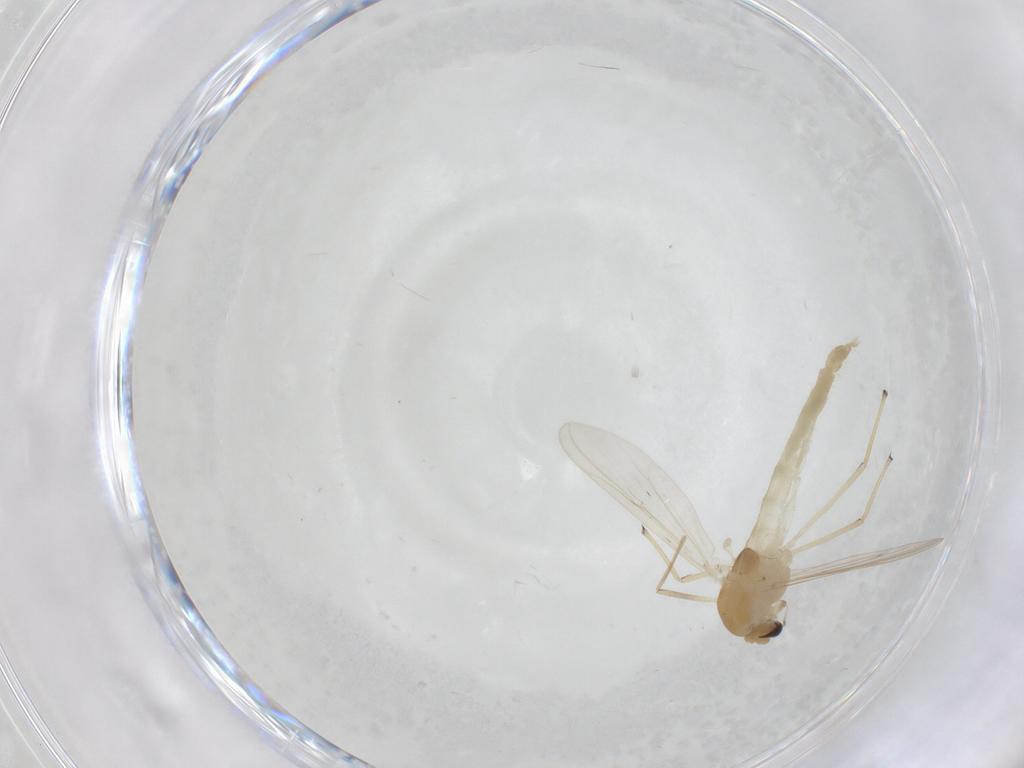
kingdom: Animalia
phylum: Arthropoda
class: Insecta
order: Diptera
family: Chironomidae
